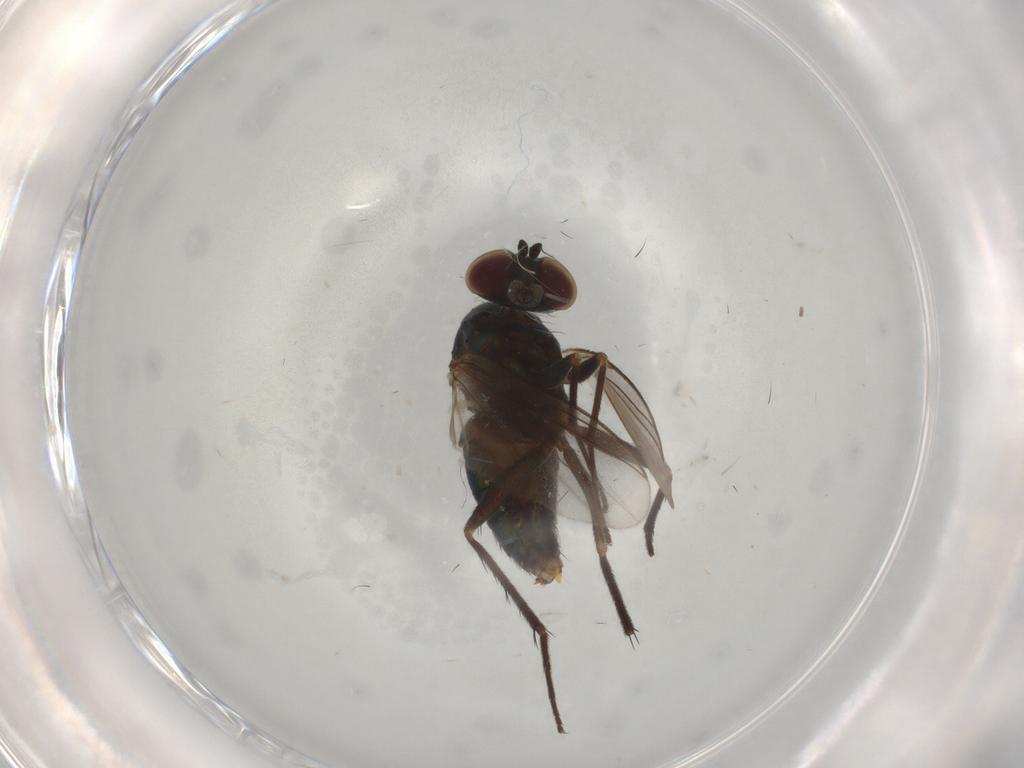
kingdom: Animalia
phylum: Arthropoda
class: Insecta
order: Diptera
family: Dolichopodidae
